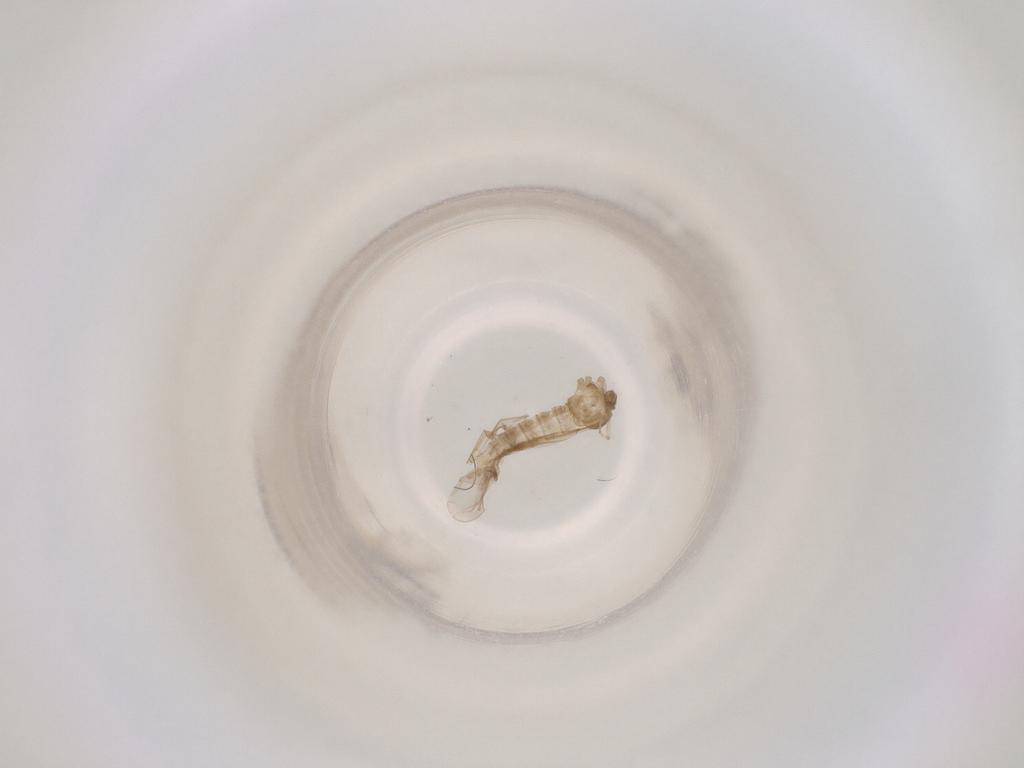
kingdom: Animalia
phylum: Arthropoda
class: Insecta
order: Diptera
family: Cecidomyiidae
